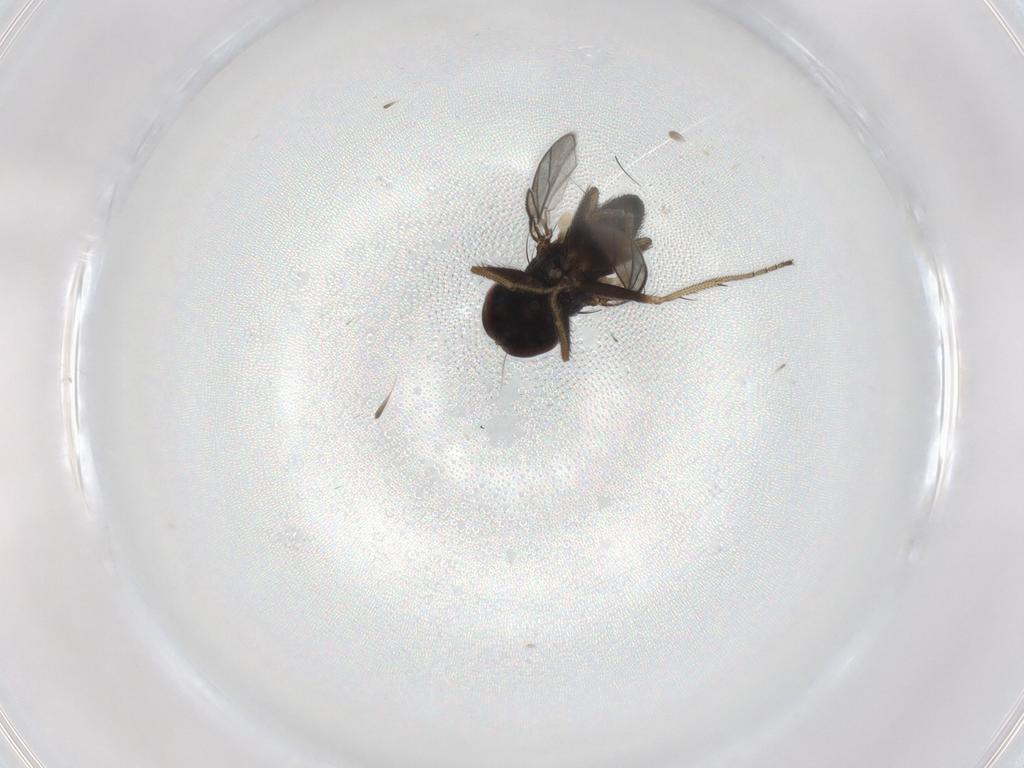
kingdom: Animalia
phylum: Arthropoda
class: Insecta
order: Diptera
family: Dolichopodidae
